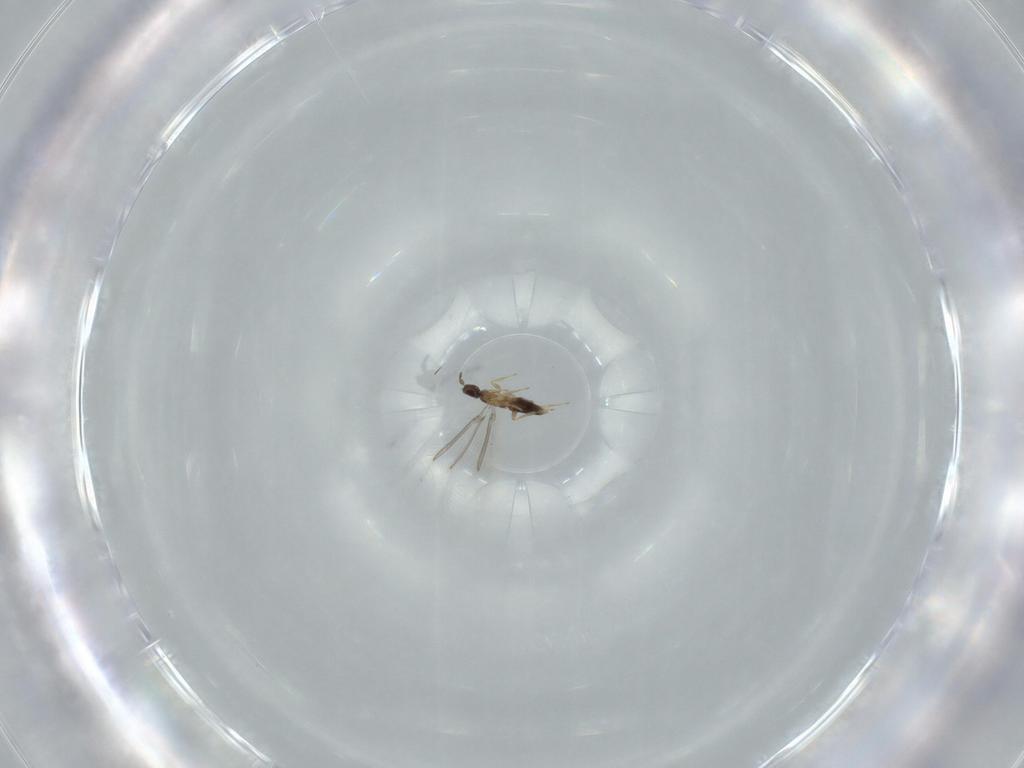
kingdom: Animalia
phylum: Arthropoda
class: Insecta
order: Hymenoptera
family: Mymaridae
